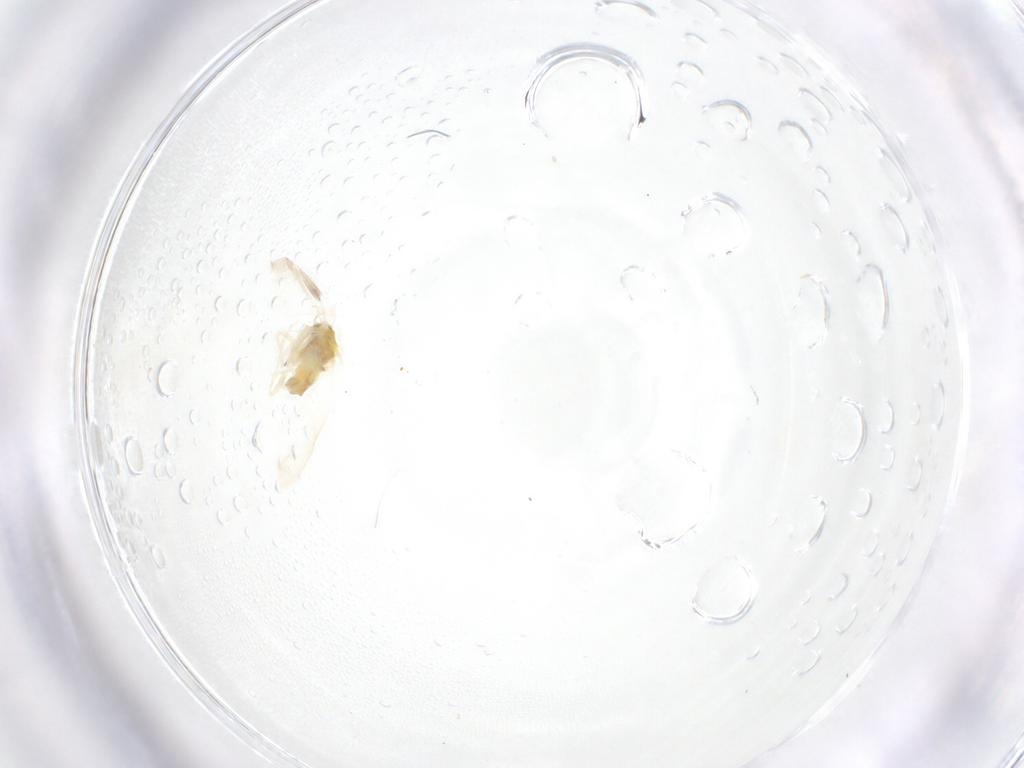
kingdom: Animalia
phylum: Arthropoda
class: Insecta
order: Hemiptera
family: Aleyrodidae
